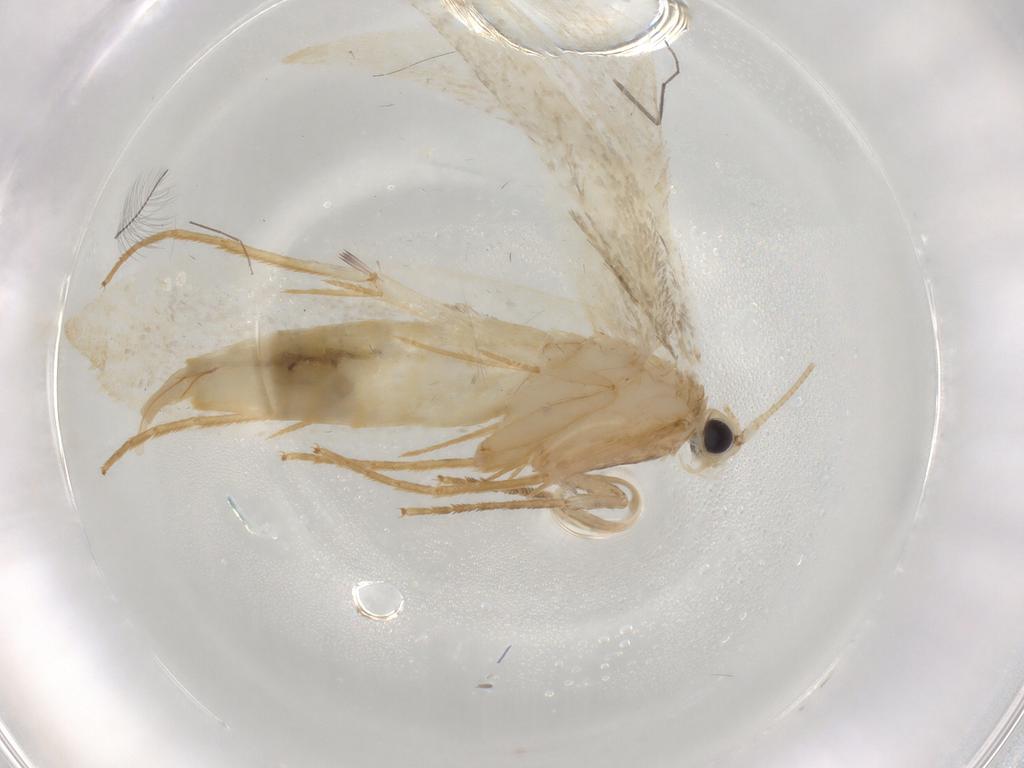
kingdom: Animalia
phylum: Arthropoda
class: Insecta
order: Lepidoptera
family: Tineidae
